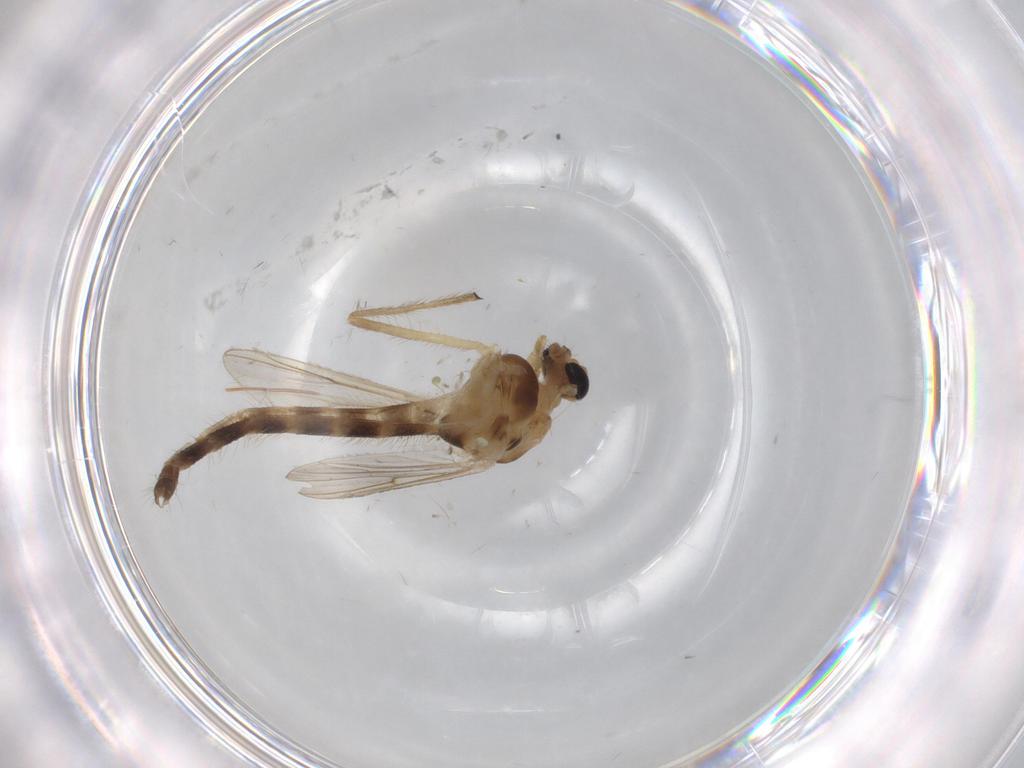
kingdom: Animalia
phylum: Arthropoda
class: Insecta
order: Diptera
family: Chironomidae
